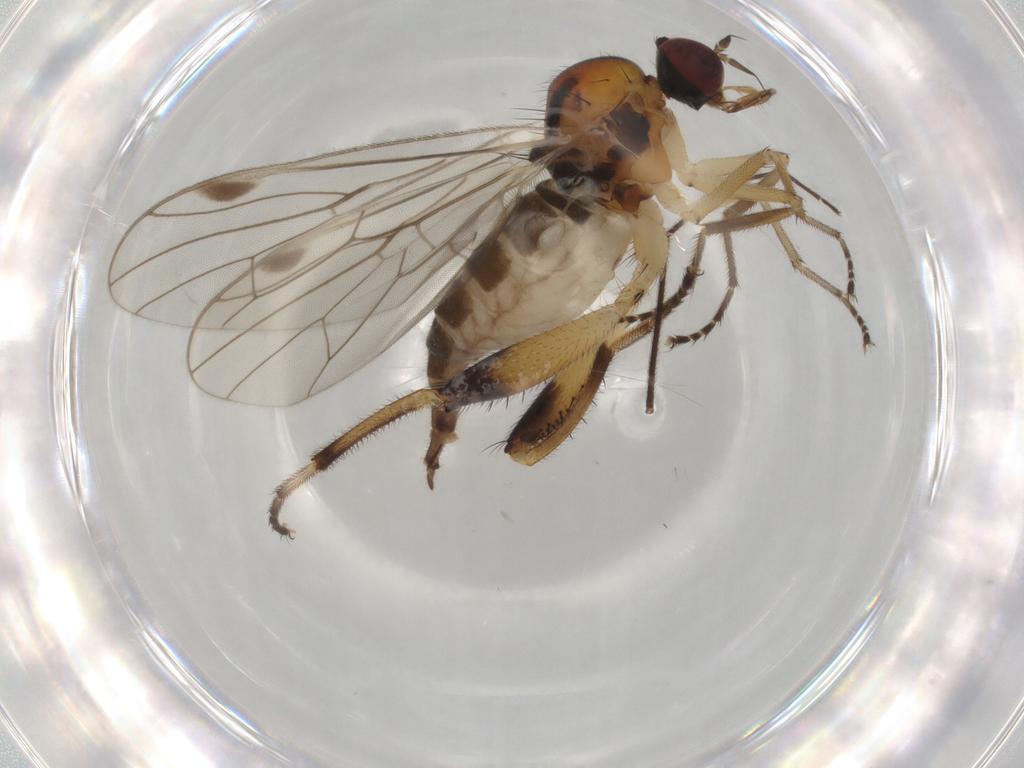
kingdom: Animalia
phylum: Arthropoda
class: Insecta
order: Diptera
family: Hybotidae
